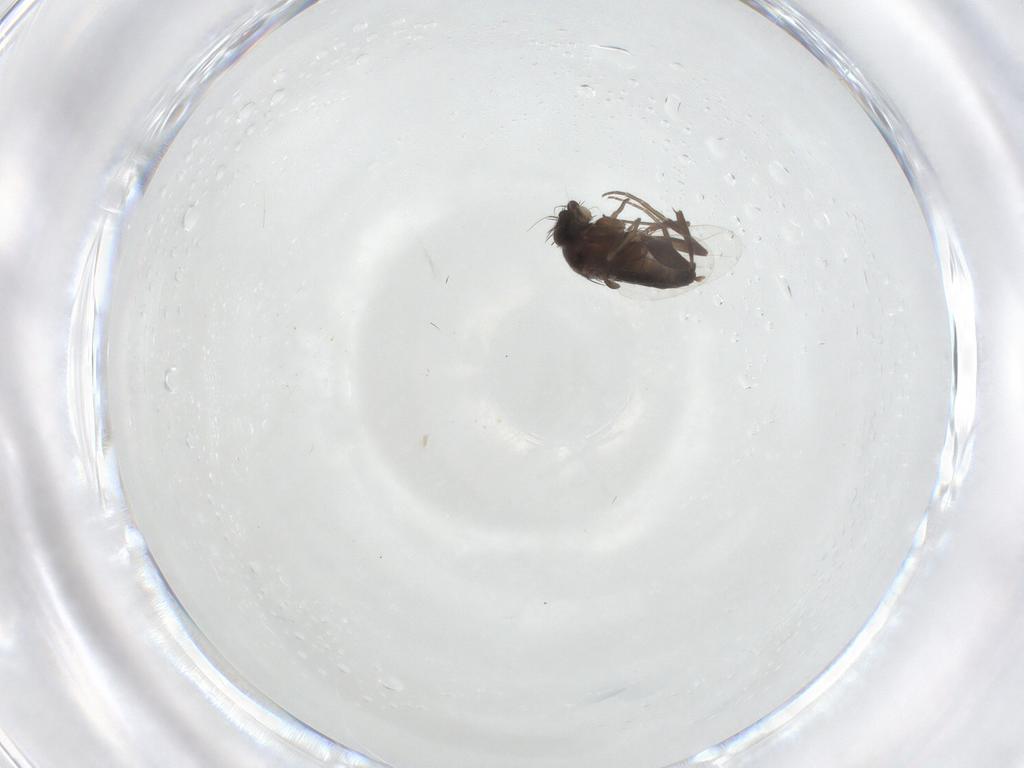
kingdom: Animalia
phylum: Arthropoda
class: Insecta
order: Diptera
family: Phoridae
